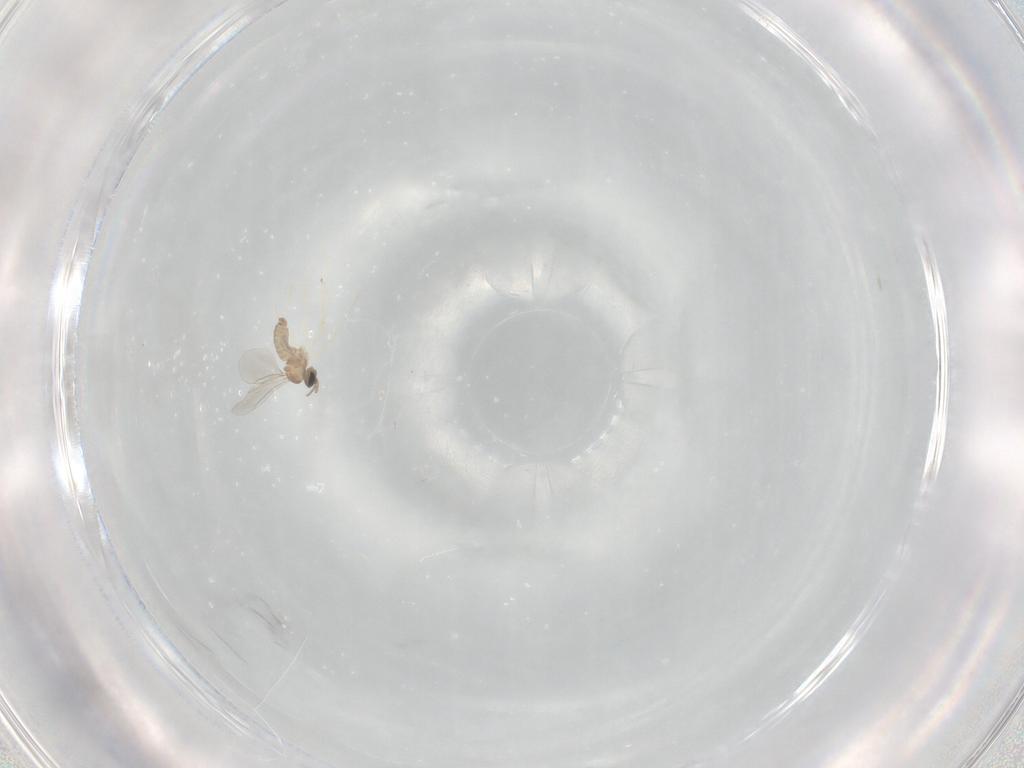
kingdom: Animalia
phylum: Arthropoda
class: Insecta
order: Diptera
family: Cecidomyiidae
